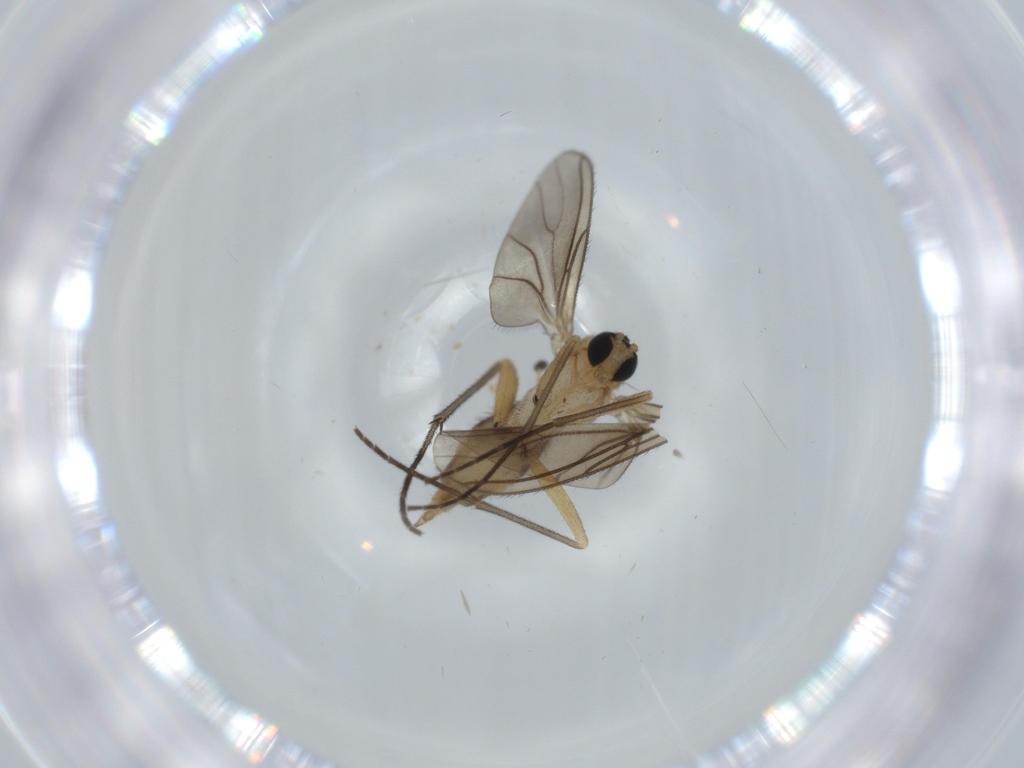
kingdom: Animalia
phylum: Arthropoda
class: Insecta
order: Diptera
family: Sciaridae
